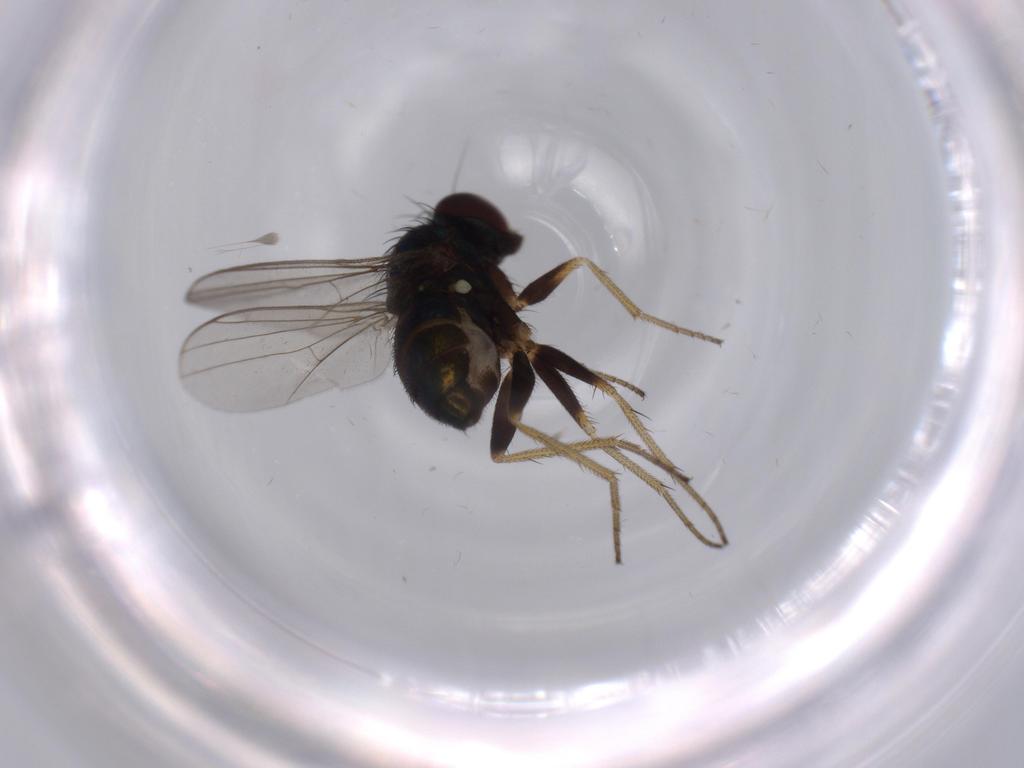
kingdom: Animalia
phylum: Arthropoda
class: Insecta
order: Diptera
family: Dolichopodidae
